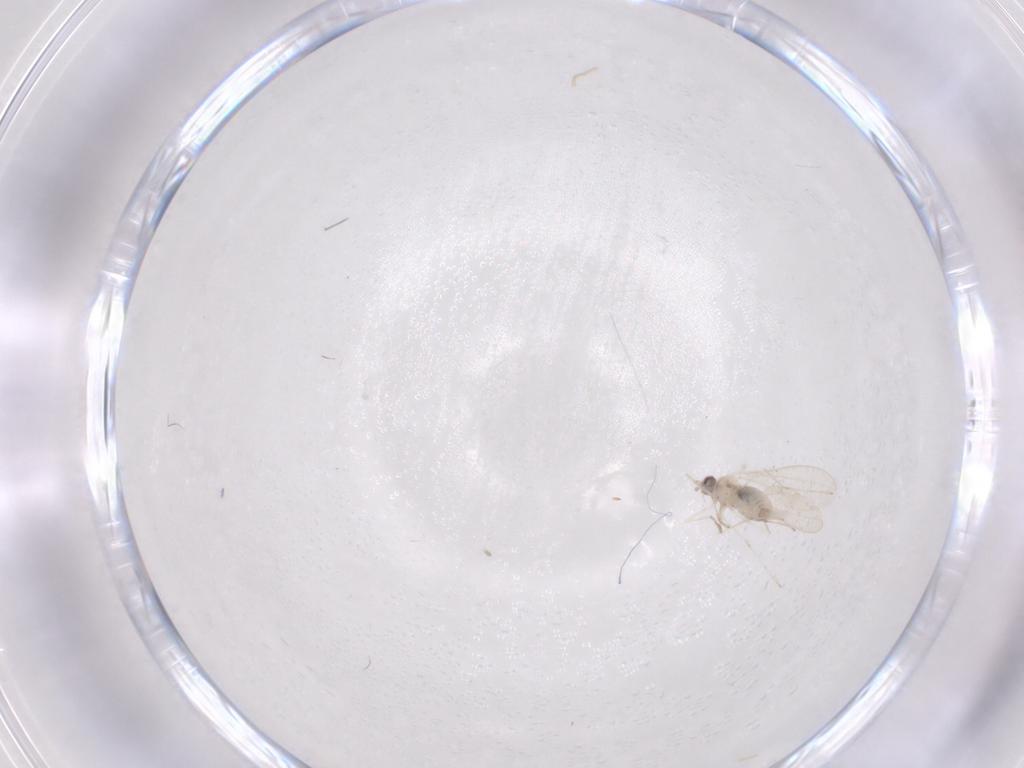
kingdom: Animalia
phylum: Arthropoda
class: Insecta
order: Diptera
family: Cecidomyiidae
